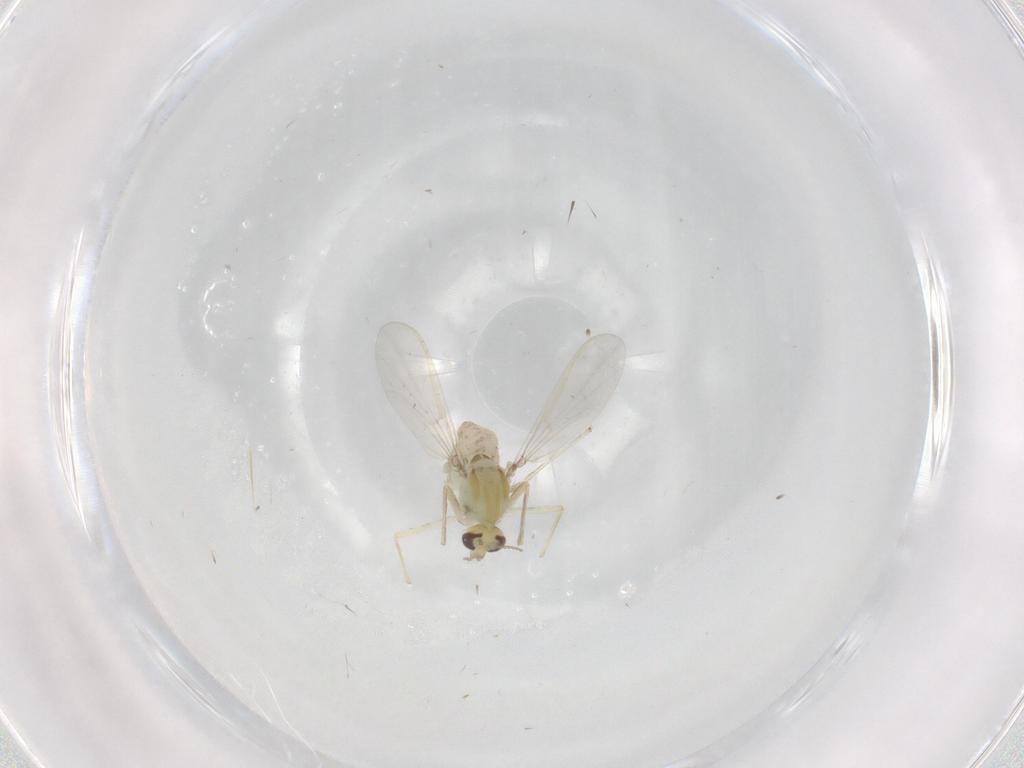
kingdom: Animalia
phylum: Arthropoda
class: Insecta
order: Diptera
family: Chironomidae
